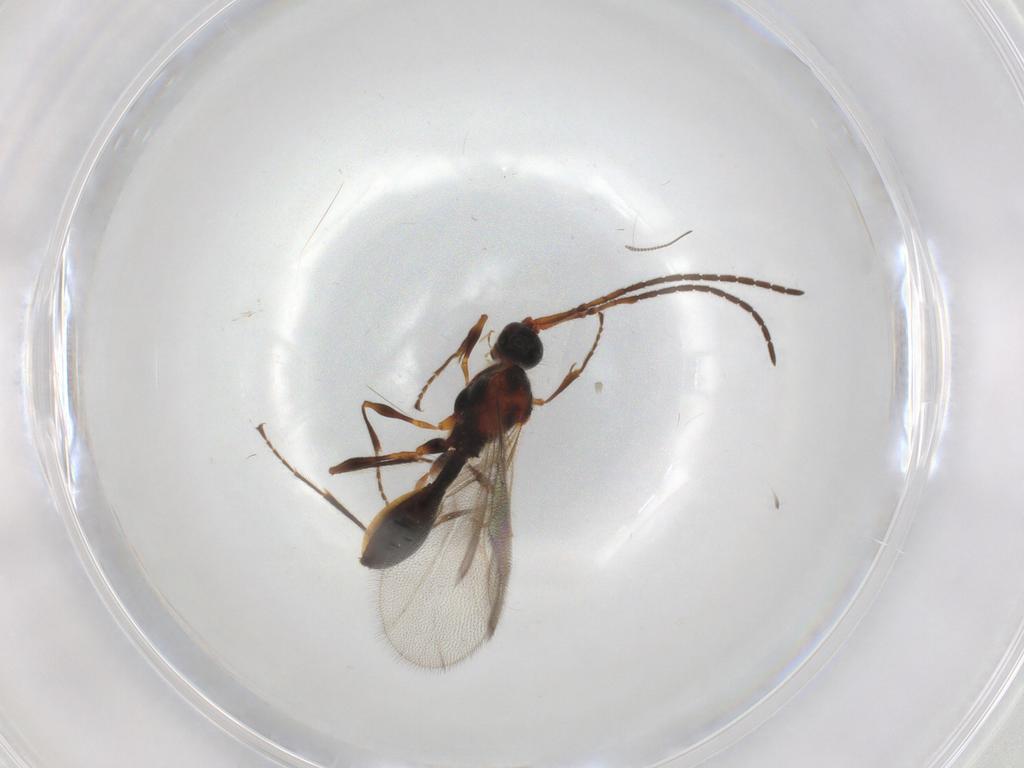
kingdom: Animalia
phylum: Arthropoda
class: Insecta
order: Hymenoptera
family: Diapriidae
